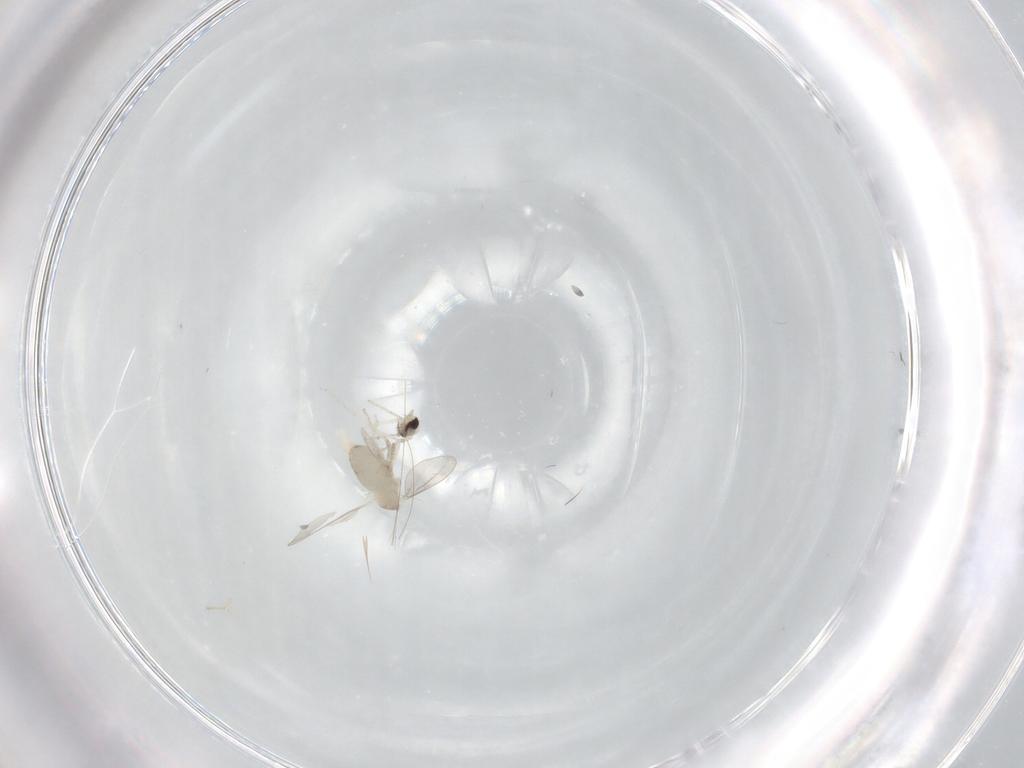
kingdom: Animalia
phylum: Arthropoda
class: Insecta
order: Diptera
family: Cecidomyiidae
